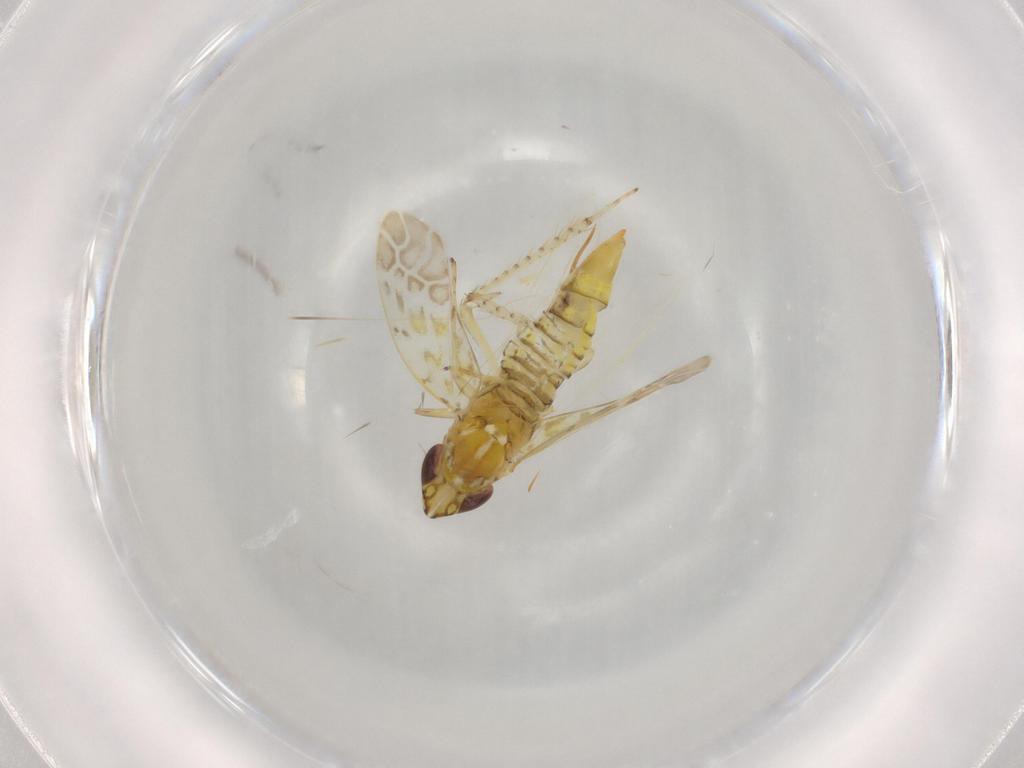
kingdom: Animalia
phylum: Arthropoda
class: Insecta
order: Hemiptera
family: Cicadellidae
